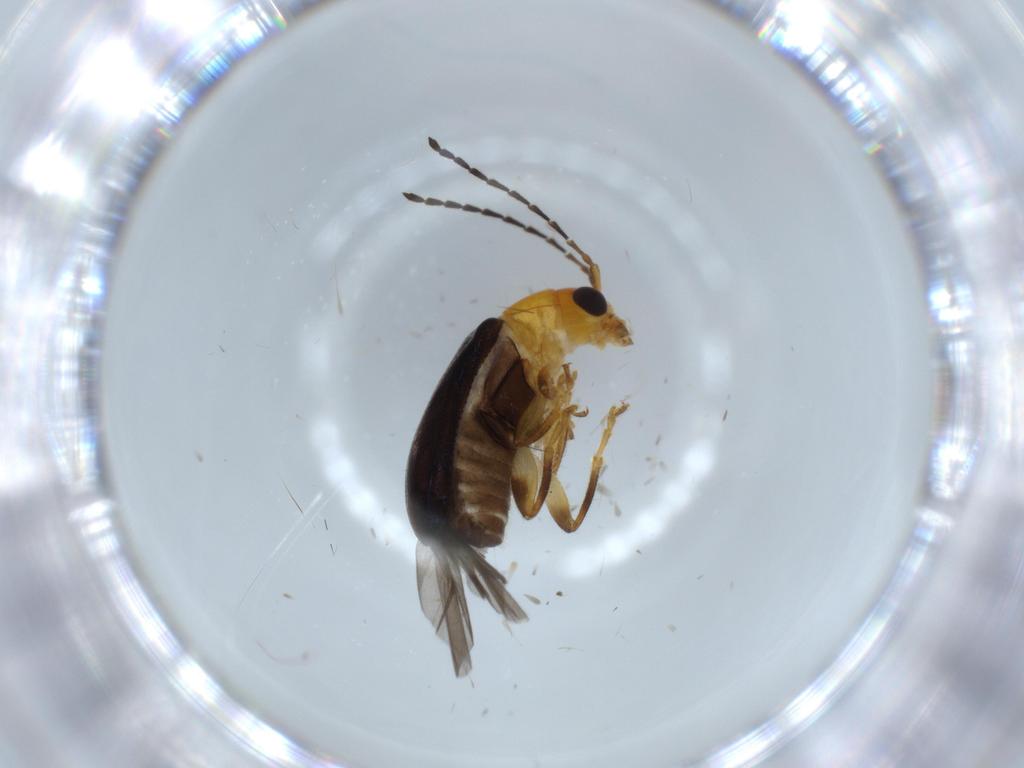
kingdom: Animalia
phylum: Arthropoda
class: Insecta
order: Coleoptera
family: Chrysomelidae
